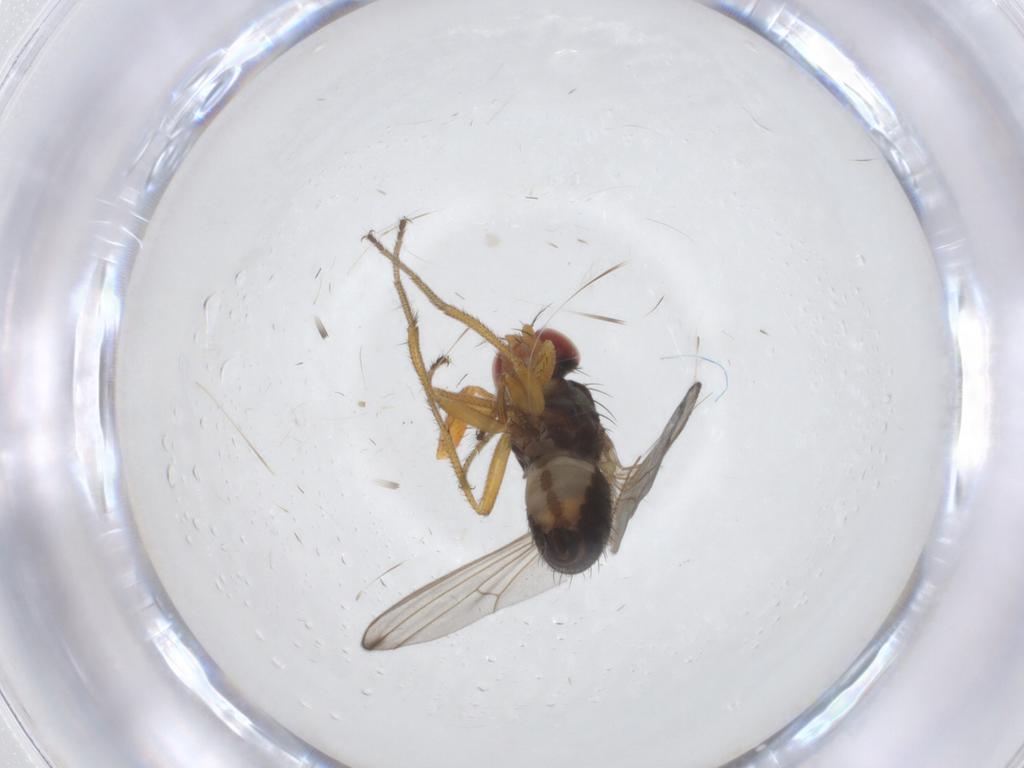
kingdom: Animalia
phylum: Arthropoda
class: Insecta
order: Diptera
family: Drosophilidae
